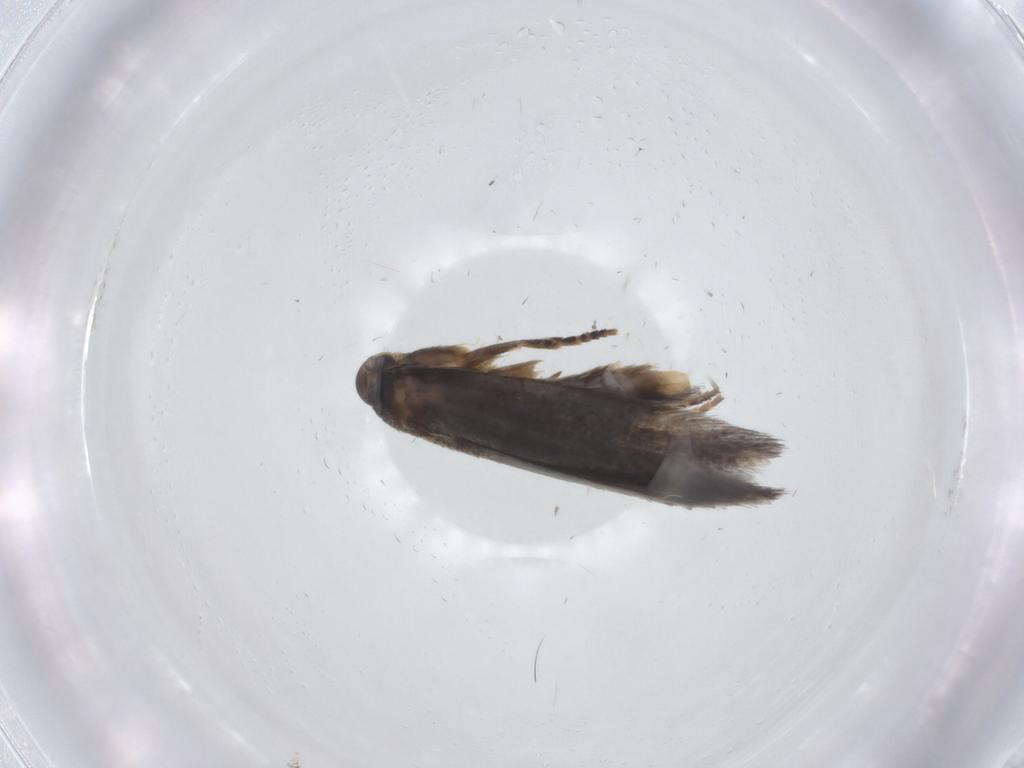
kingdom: Animalia
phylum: Arthropoda
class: Insecta
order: Lepidoptera
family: Elachistidae
